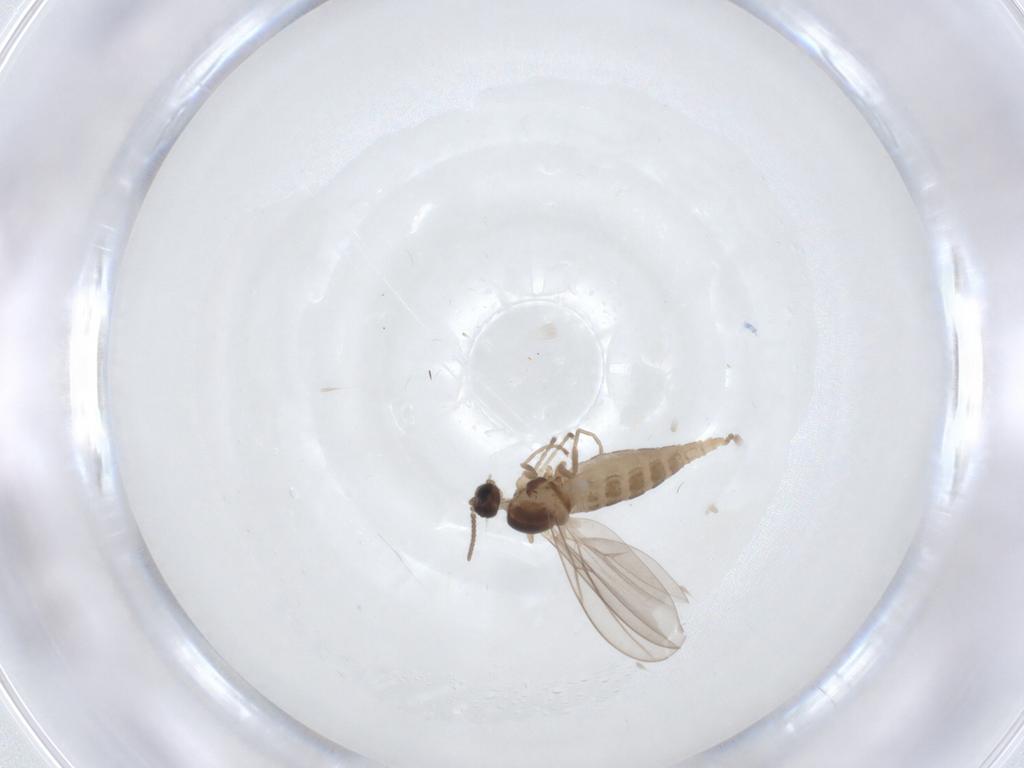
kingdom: Animalia
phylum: Arthropoda
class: Insecta
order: Diptera
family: Cecidomyiidae
